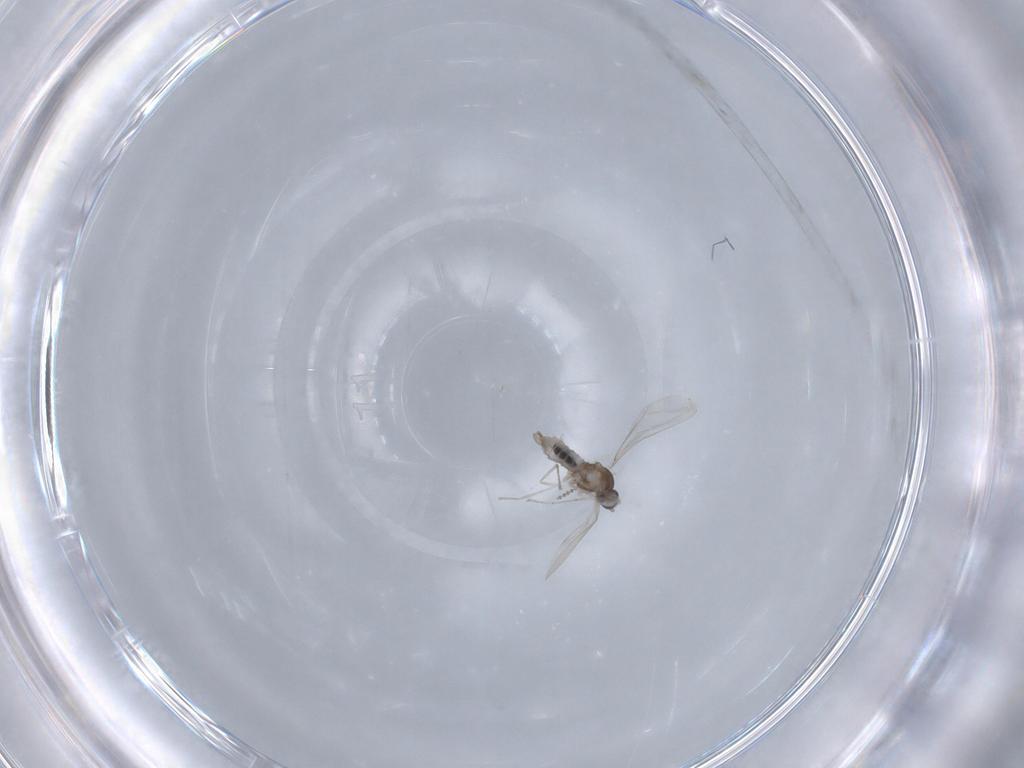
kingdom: Animalia
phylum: Arthropoda
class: Insecta
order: Diptera
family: Cecidomyiidae
